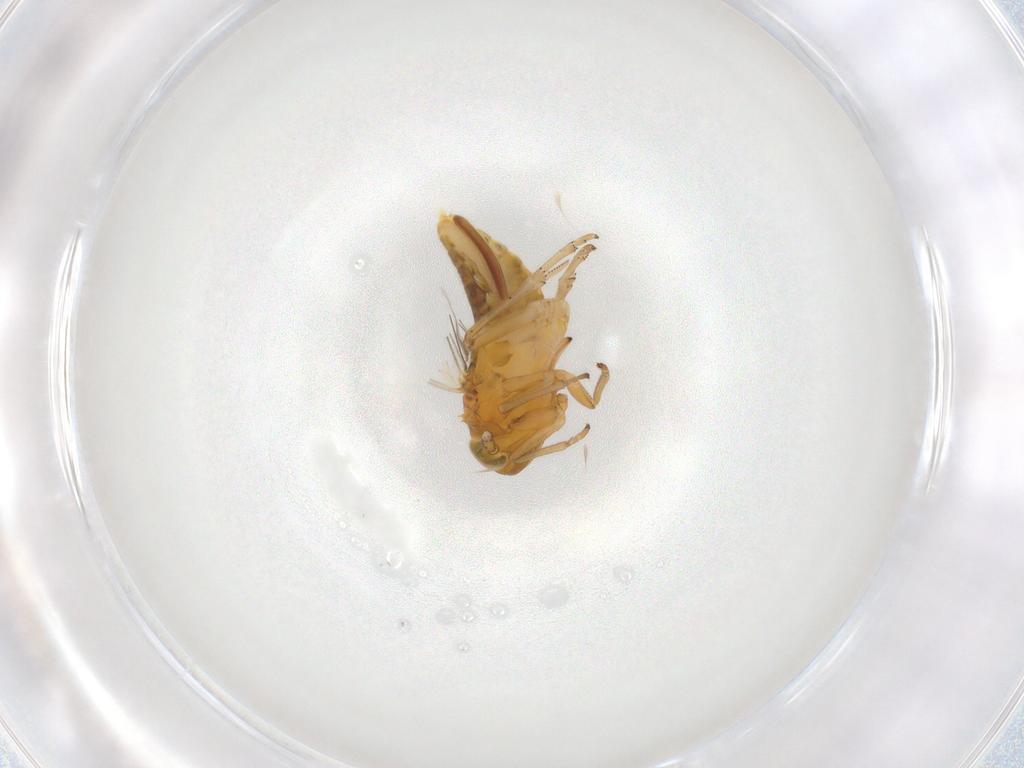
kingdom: Animalia
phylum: Arthropoda
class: Insecta
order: Hemiptera
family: Delphacidae
